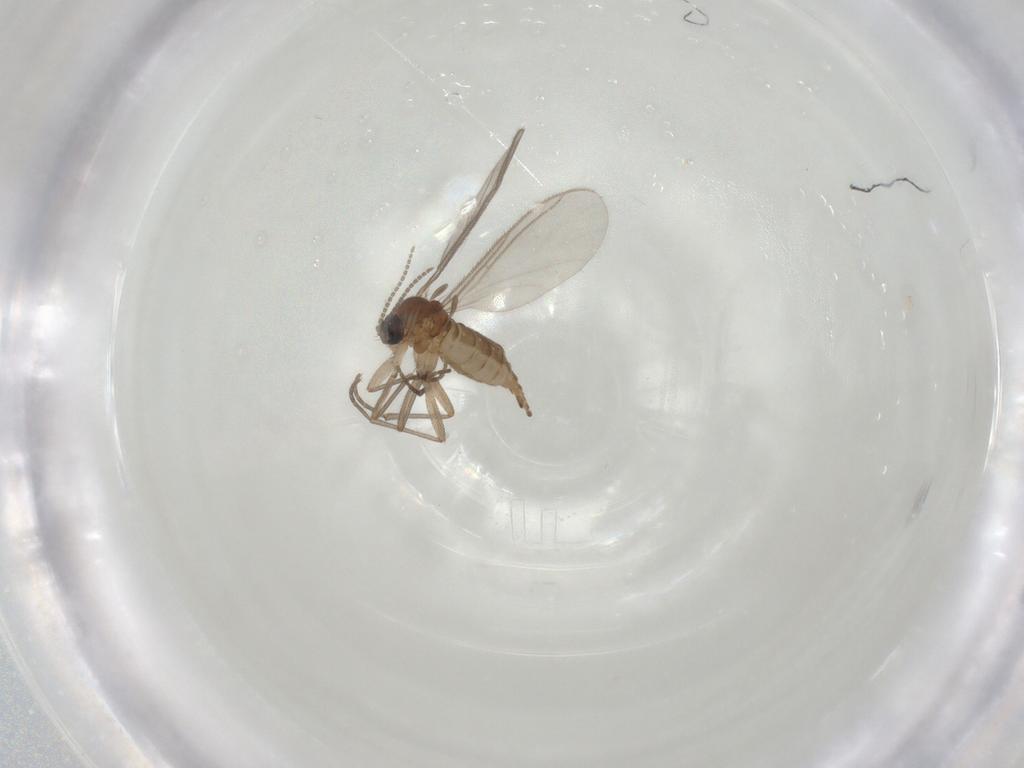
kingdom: Animalia
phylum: Arthropoda
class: Insecta
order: Diptera
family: Sciaridae
